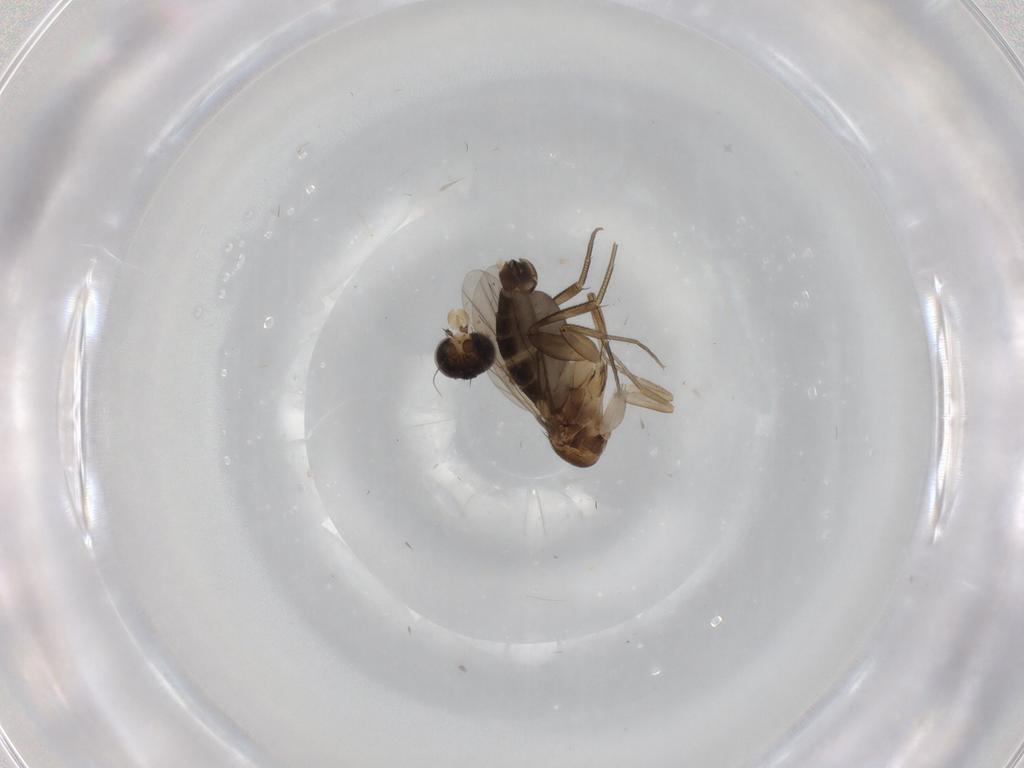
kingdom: Animalia
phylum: Arthropoda
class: Insecta
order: Diptera
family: Phoridae
